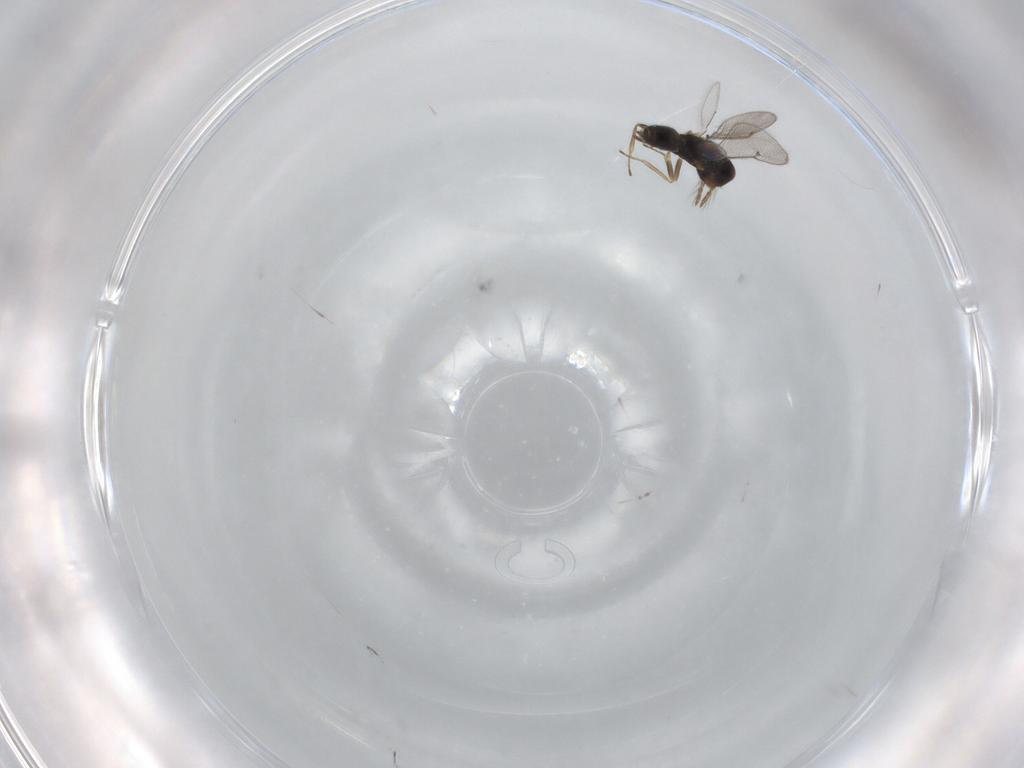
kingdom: Animalia
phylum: Arthropoda
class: Insecta
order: Hymenoptera
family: Eulophidae
